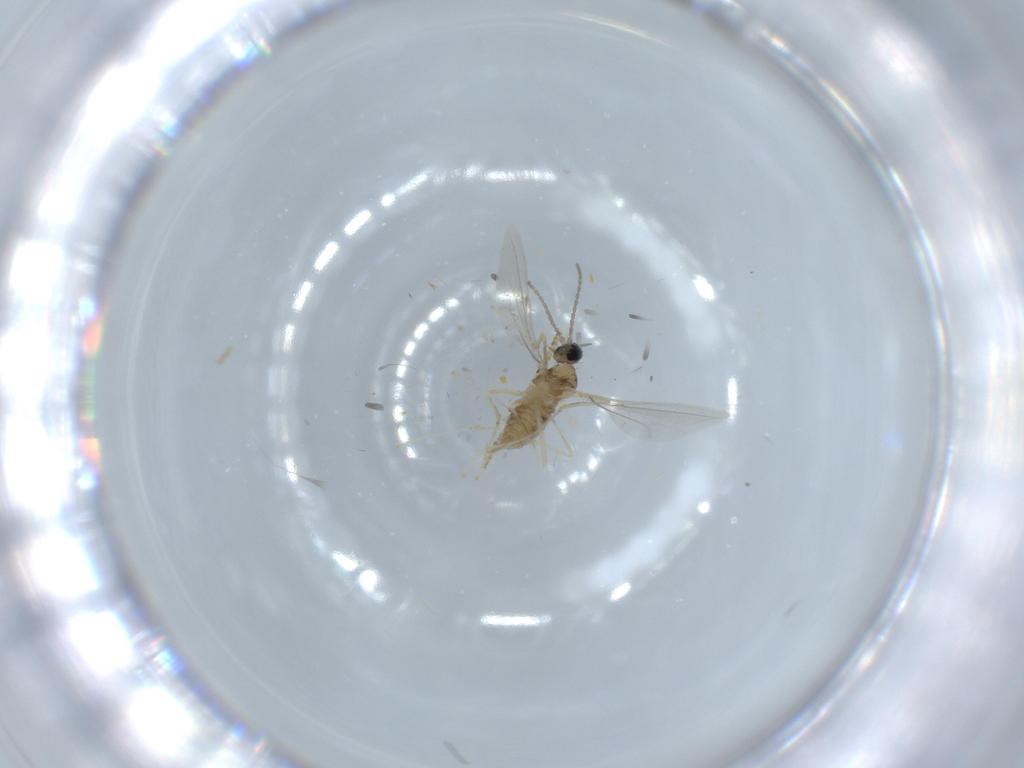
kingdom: Animalia
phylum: Arthropoda
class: Insecta
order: Diptera
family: Cecidomyiidae
